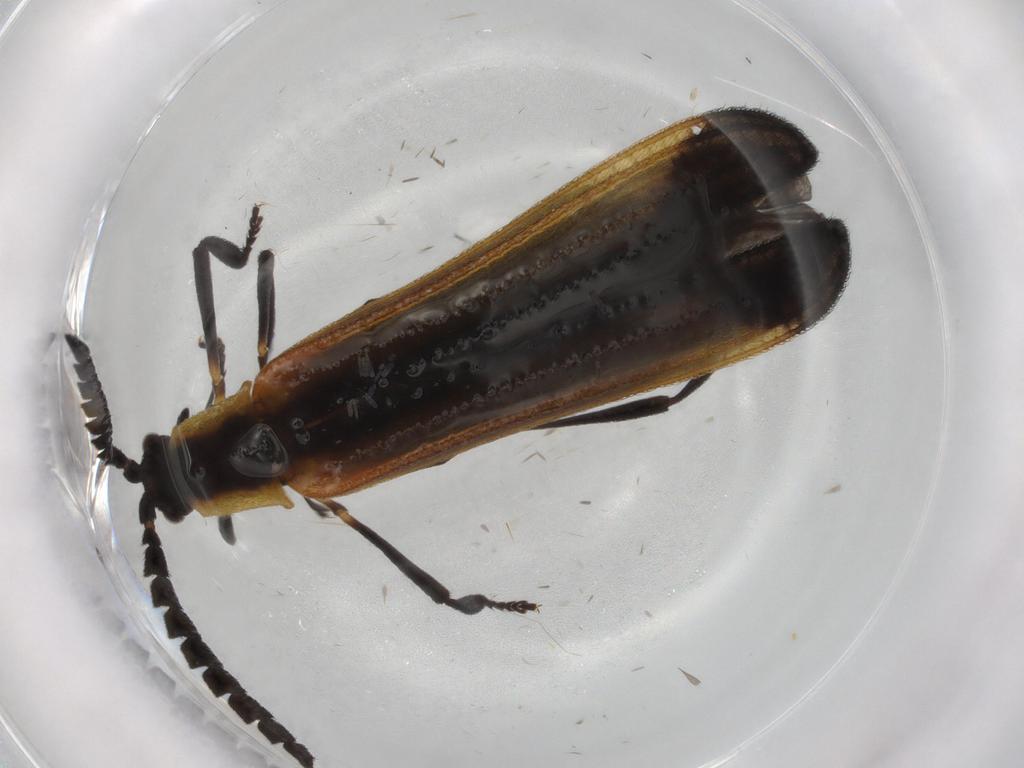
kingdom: Animalia
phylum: Arthropoda
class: Insecta
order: Coleoptera
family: Lycidae
